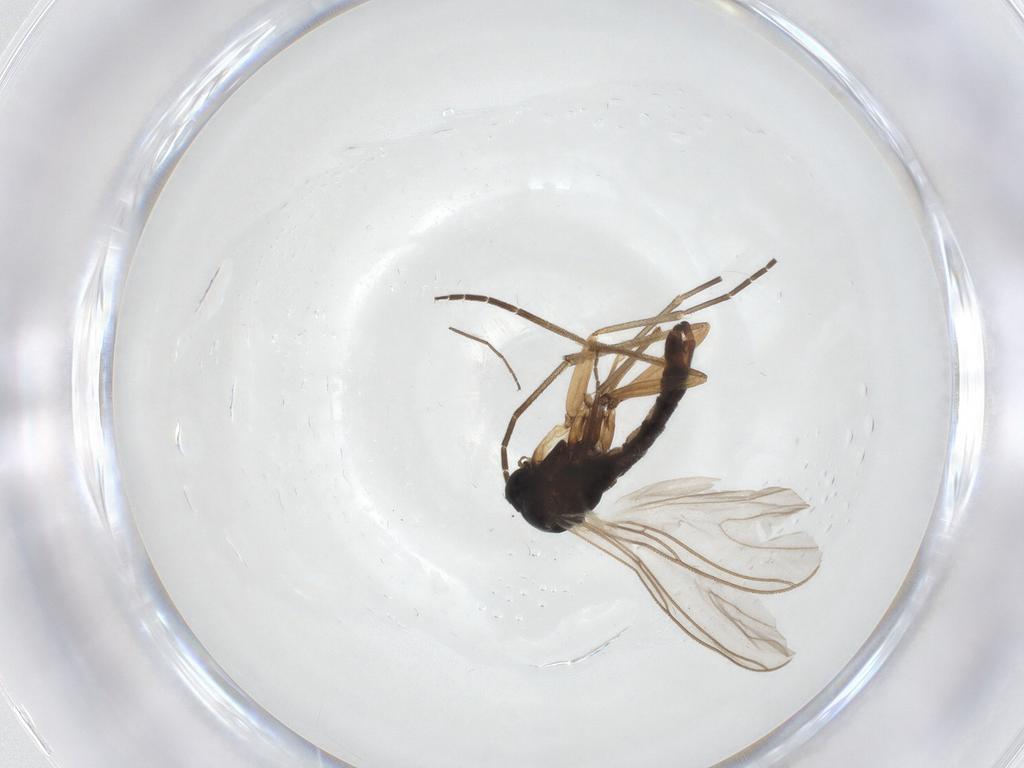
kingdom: Animalia
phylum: Arthropoda
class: Insecta
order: Diptera
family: Sciaridae
